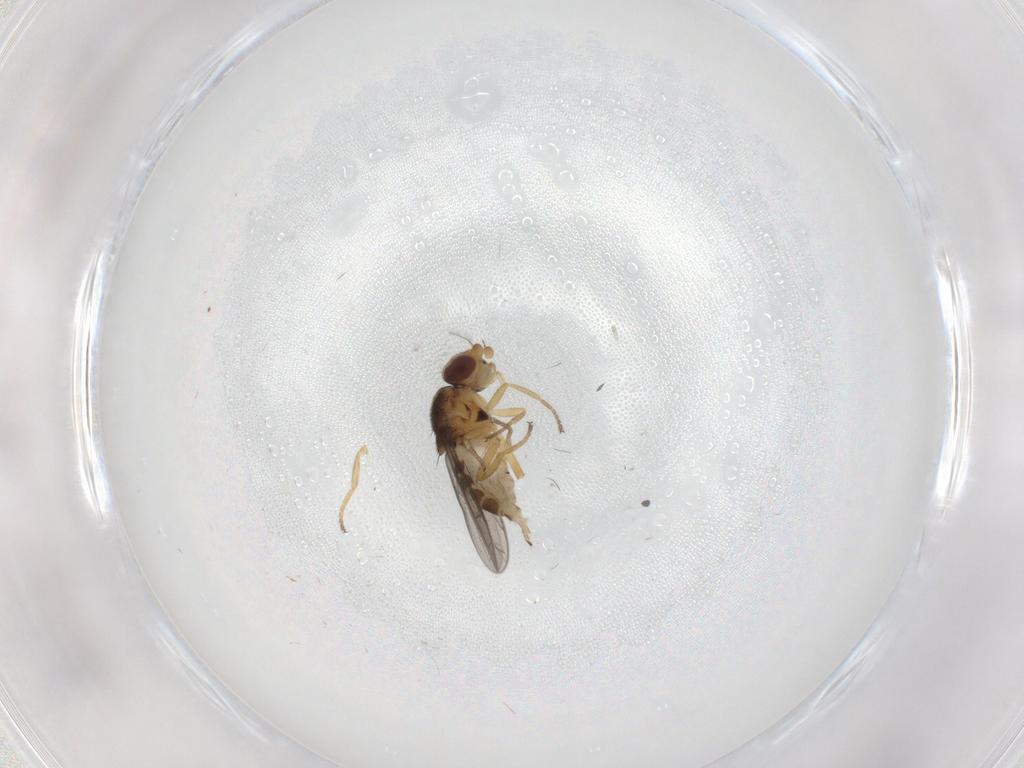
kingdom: Animalia
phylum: Arthropoda
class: Insecta
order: Diptera
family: Chloropidae
